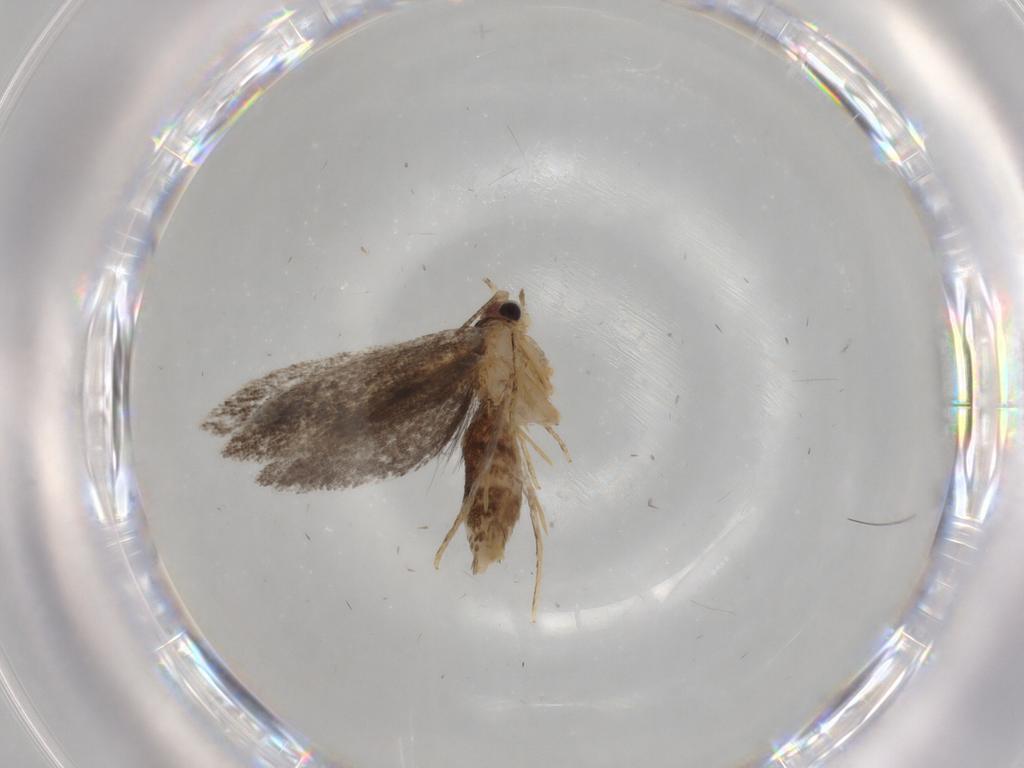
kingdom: Animalia
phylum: Arthropoda
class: Insecta
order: Lepidoptera
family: Nepticulidae
